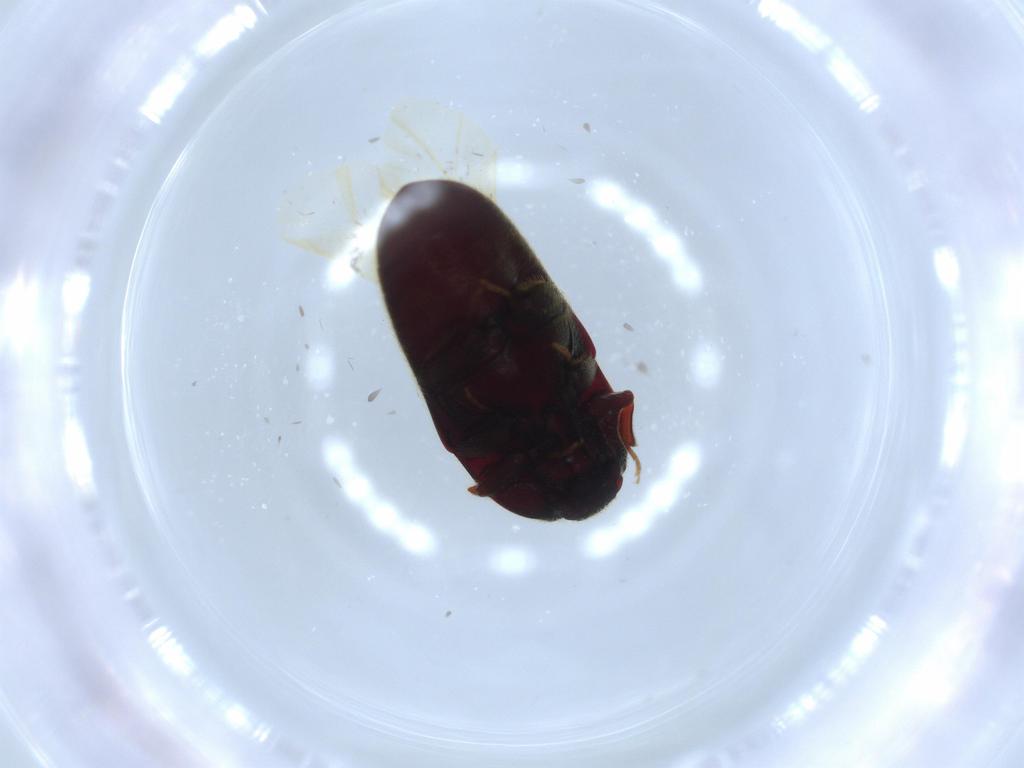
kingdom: Animalia
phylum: Arthropoda
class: Insecta
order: Coleoptera
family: Throscidae
